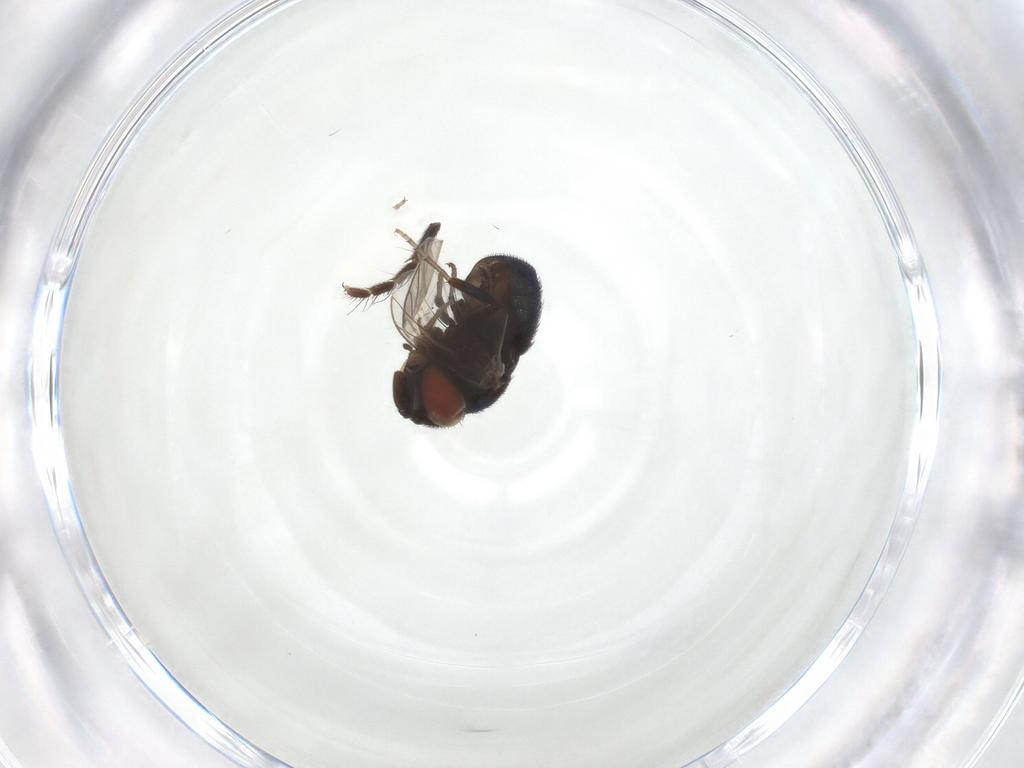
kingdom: Animalia
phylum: Arthropoda
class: Insecta
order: Diptera
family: Cryptochetidae
